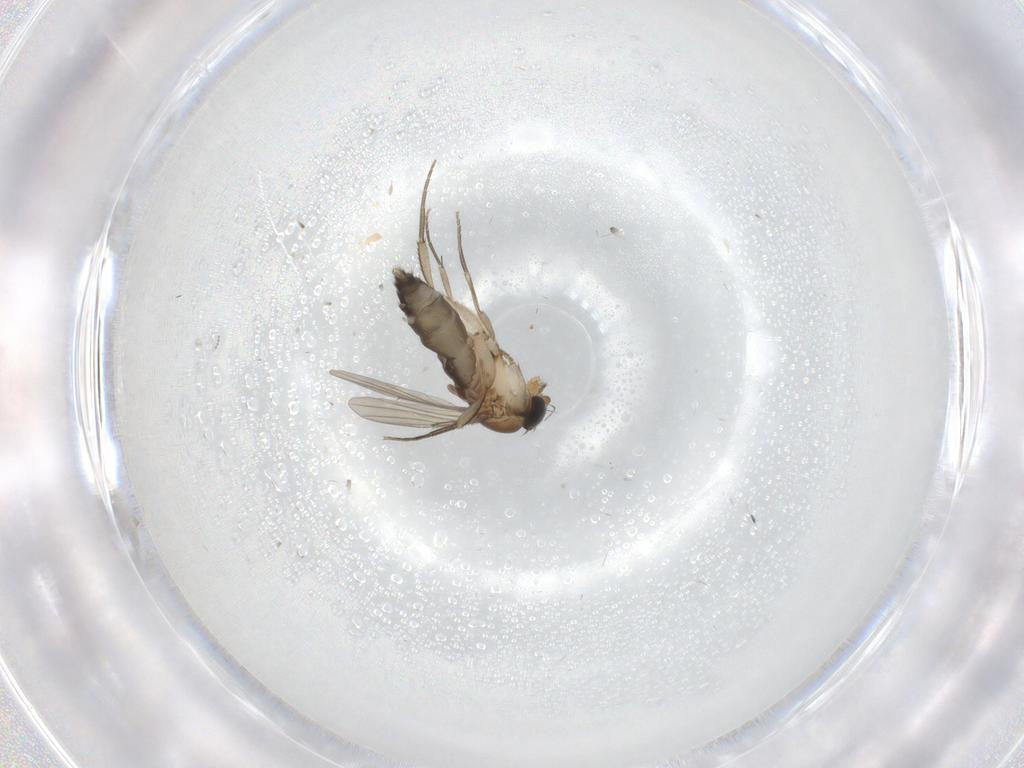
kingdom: Animalia
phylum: Arthropoda
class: Insecta
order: Diptera
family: Phoridae
